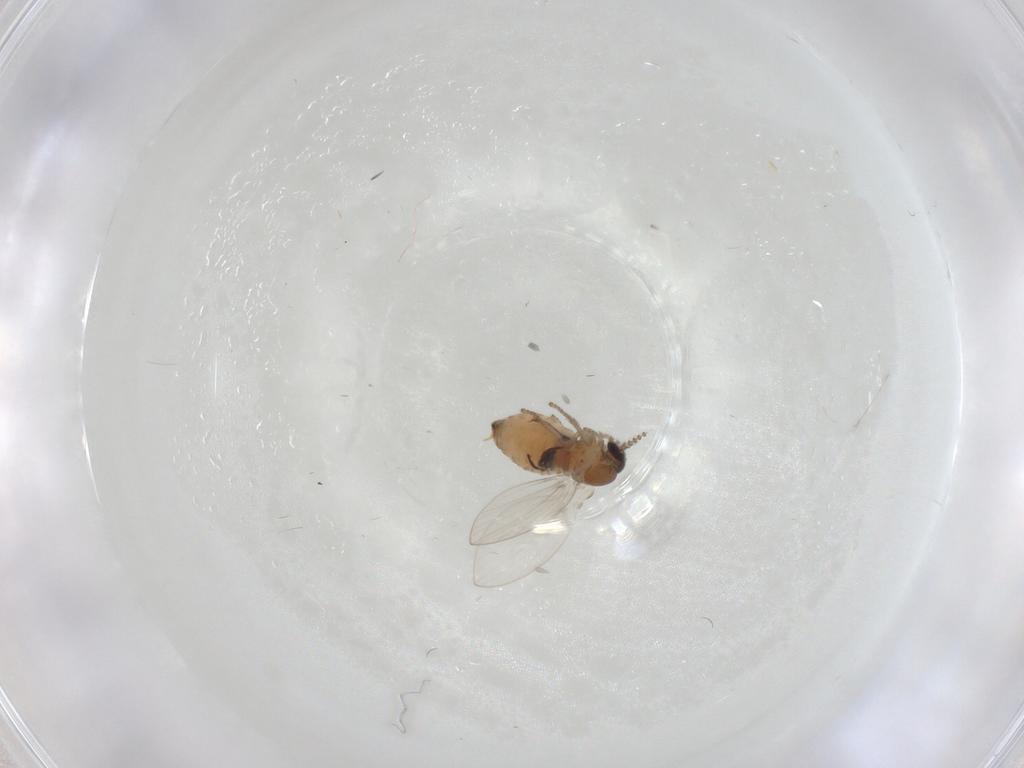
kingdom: Animalia
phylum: Arthropoda
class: Insecta
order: Diptera
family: Psychodidae
